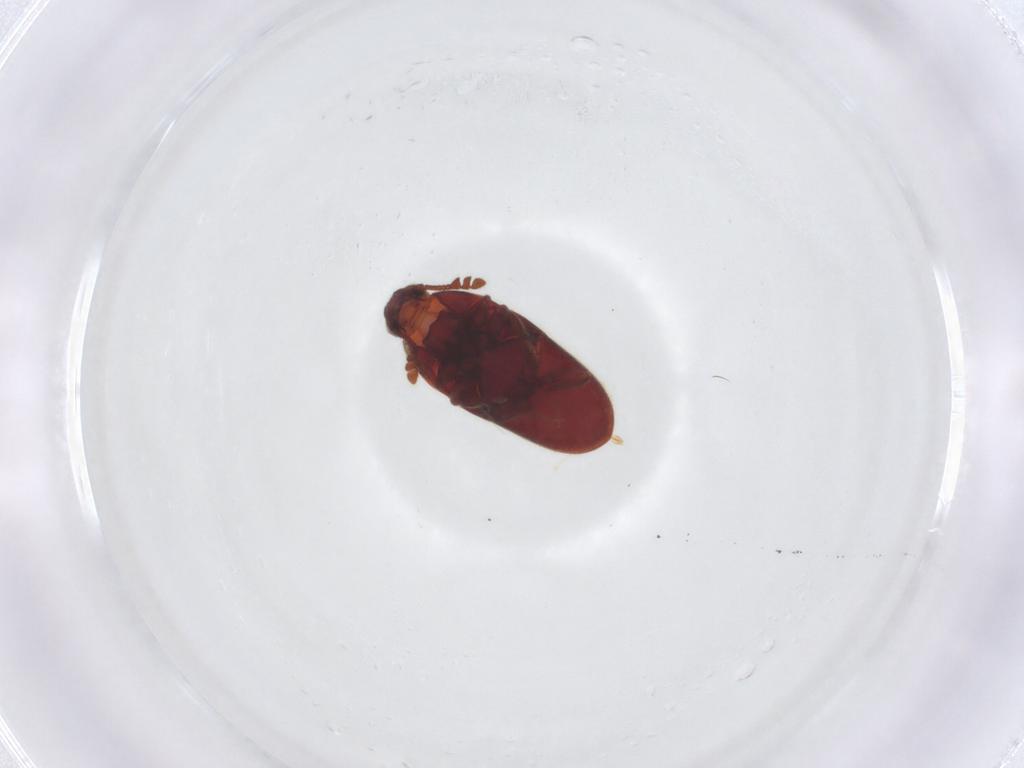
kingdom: Animalia
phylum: Arthropoda
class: Insecta
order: Coleoptera
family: Throscidae
